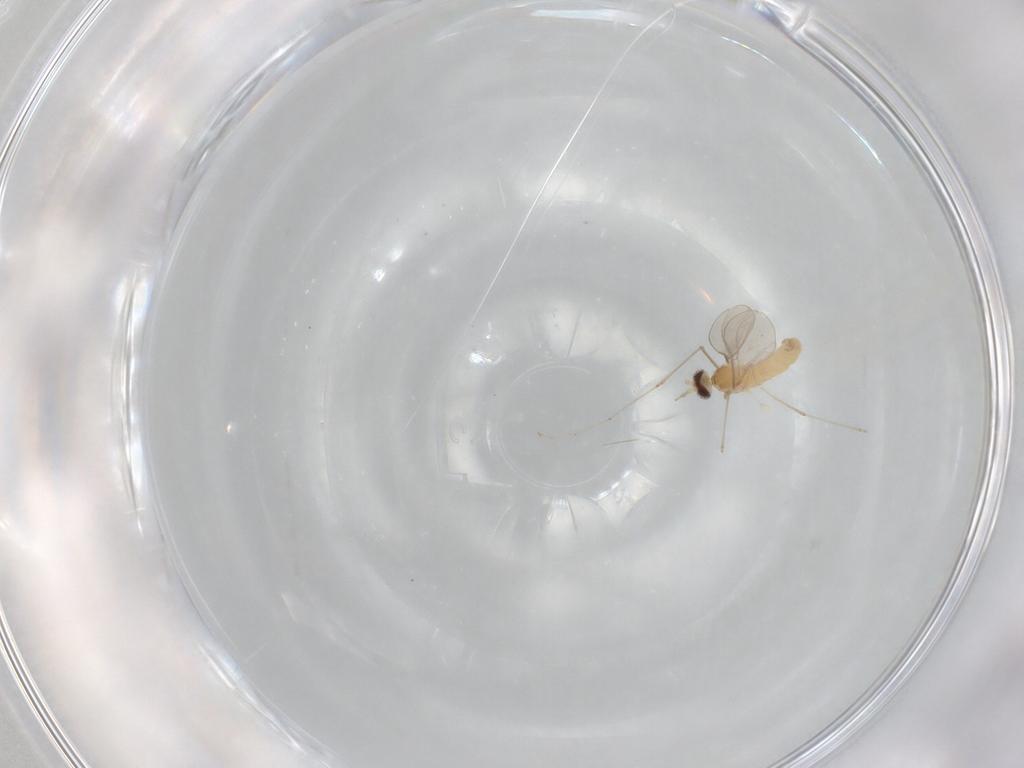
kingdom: Animalia
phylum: Arthropoda
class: Insecta
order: Diptera
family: Cecidomyiidae
